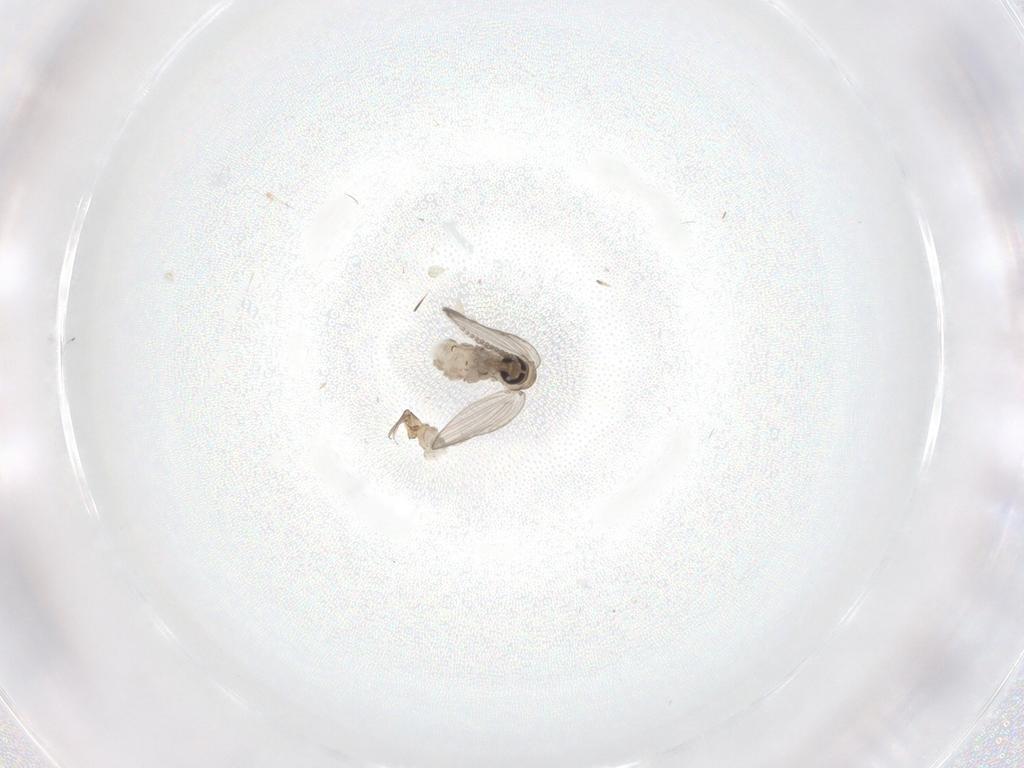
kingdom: Animalia
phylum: Arthropoda
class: Insecta
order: Diptera
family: Psychodidae
